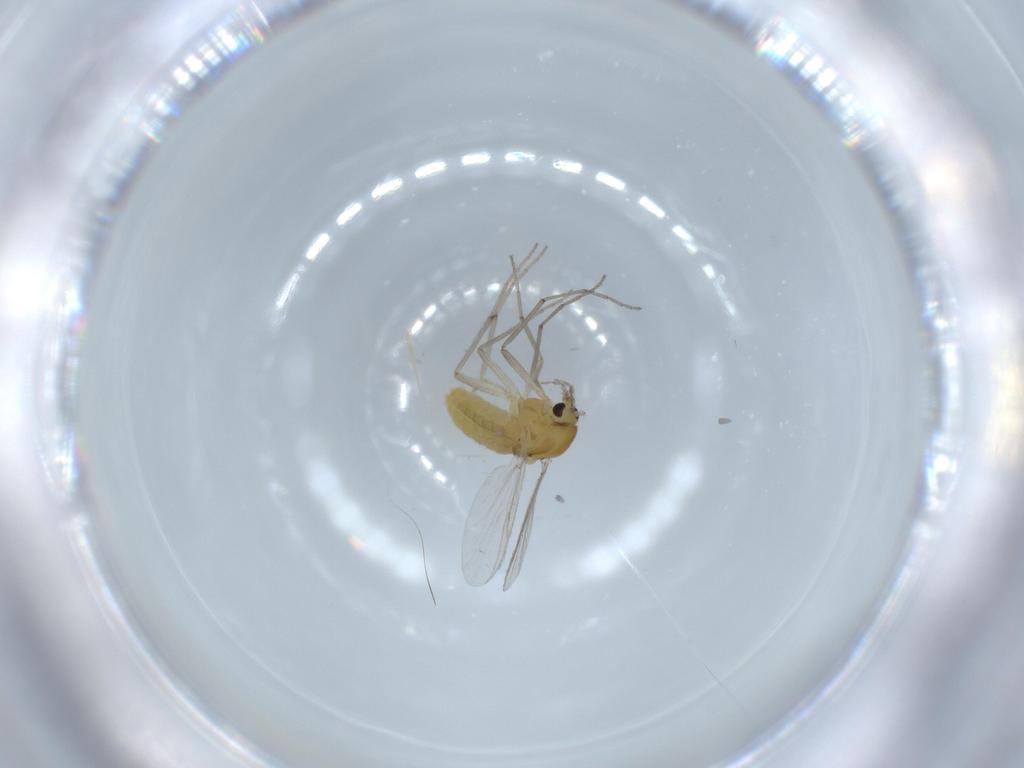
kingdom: Animalia
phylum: Arthropoda
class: Insecta
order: Diptera
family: Chironomidae
